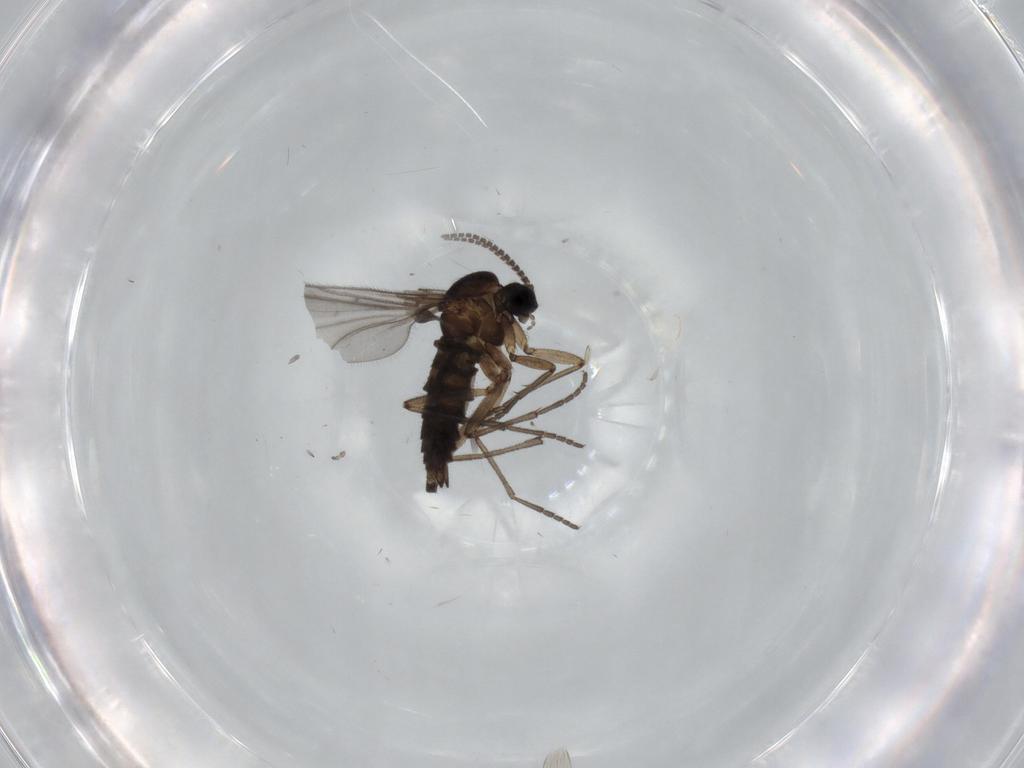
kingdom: Animalia
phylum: Arthropoda
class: Insecta
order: Diptera
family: Sciaridae
